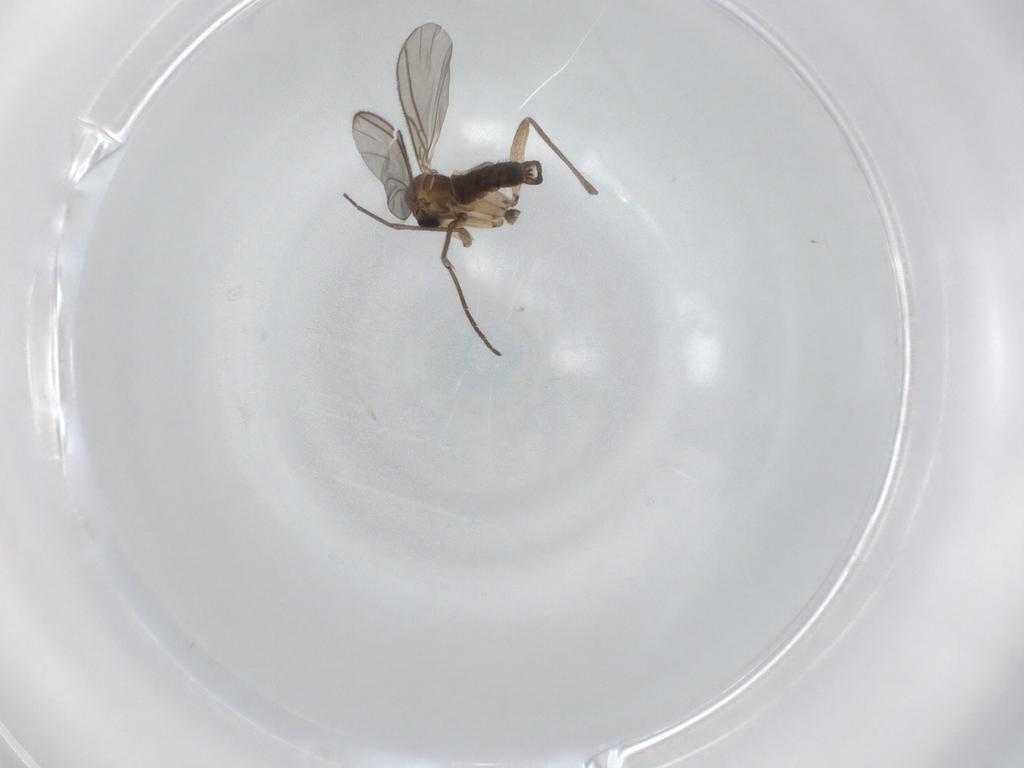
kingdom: Animalia
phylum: Arthropoda
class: Insecta
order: Diptera
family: Sciaridae
